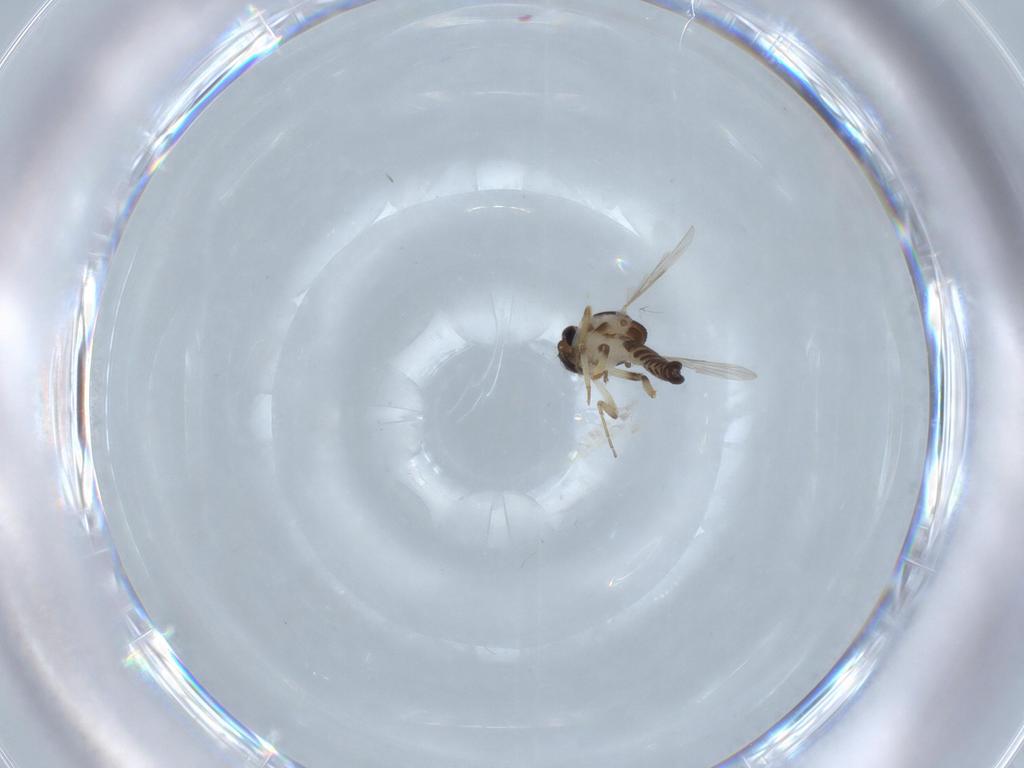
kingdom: Animalia
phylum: Arthropoda
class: Insecta
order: Diptera
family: Ceratopogonidae
